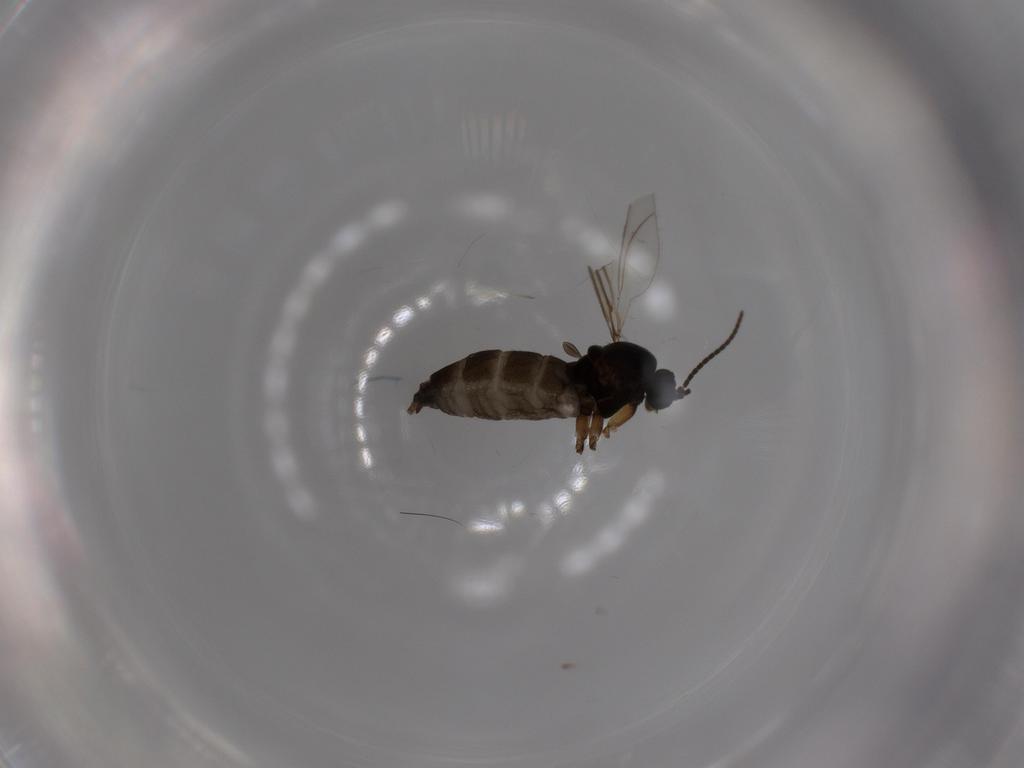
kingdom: Animalia
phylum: Arthropoda
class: Insecta
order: Diptera
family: Sciaridae
